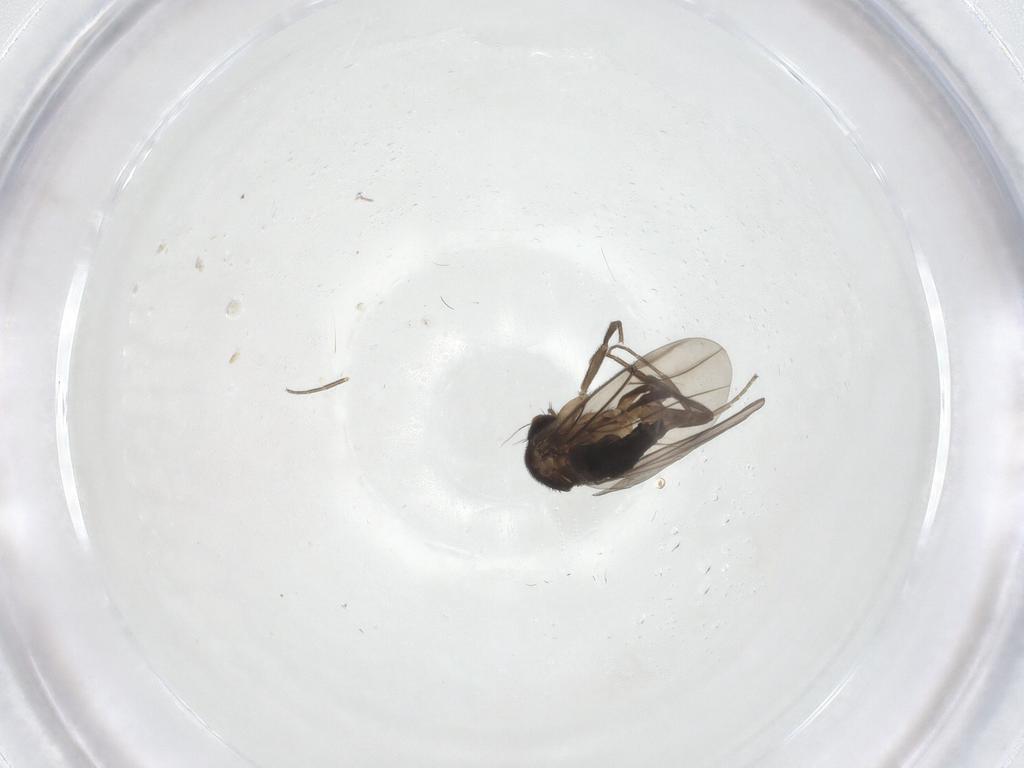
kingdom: Animalia
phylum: Arthropoda
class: Insecta
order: Diptera
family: Phoridae
